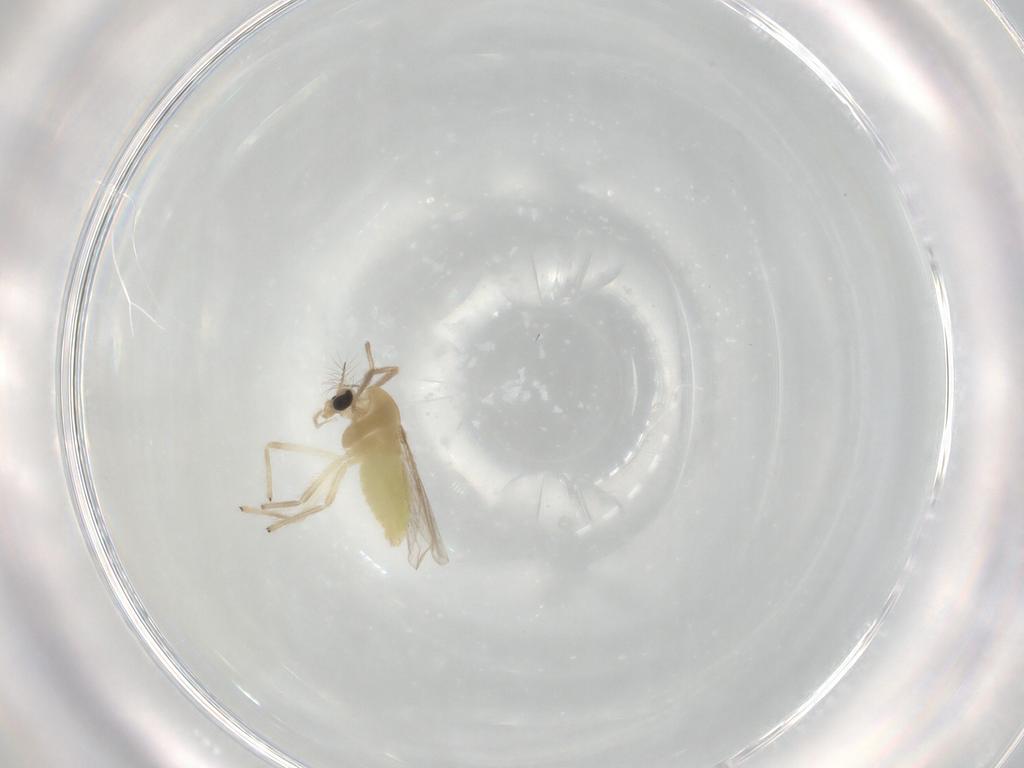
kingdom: Animalia
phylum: Arthropoda
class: Insecta
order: Diptera
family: Chironomidae
